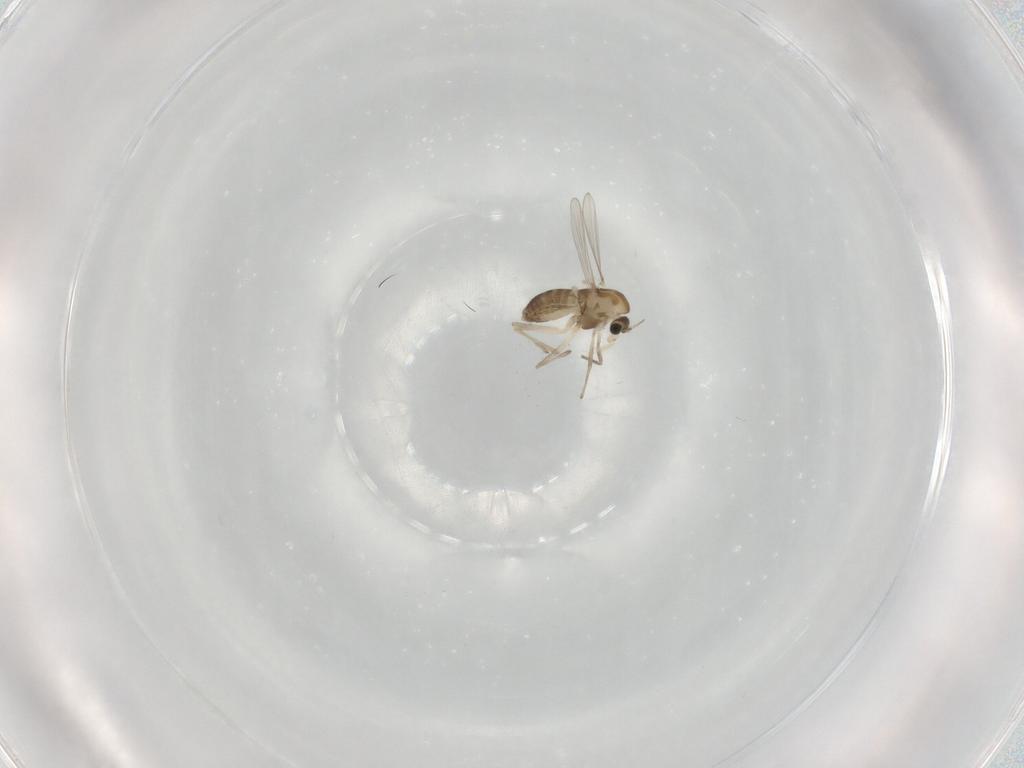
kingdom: Animalia
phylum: Arthropoda
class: Insecta
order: Diptera
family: Chironomidae
